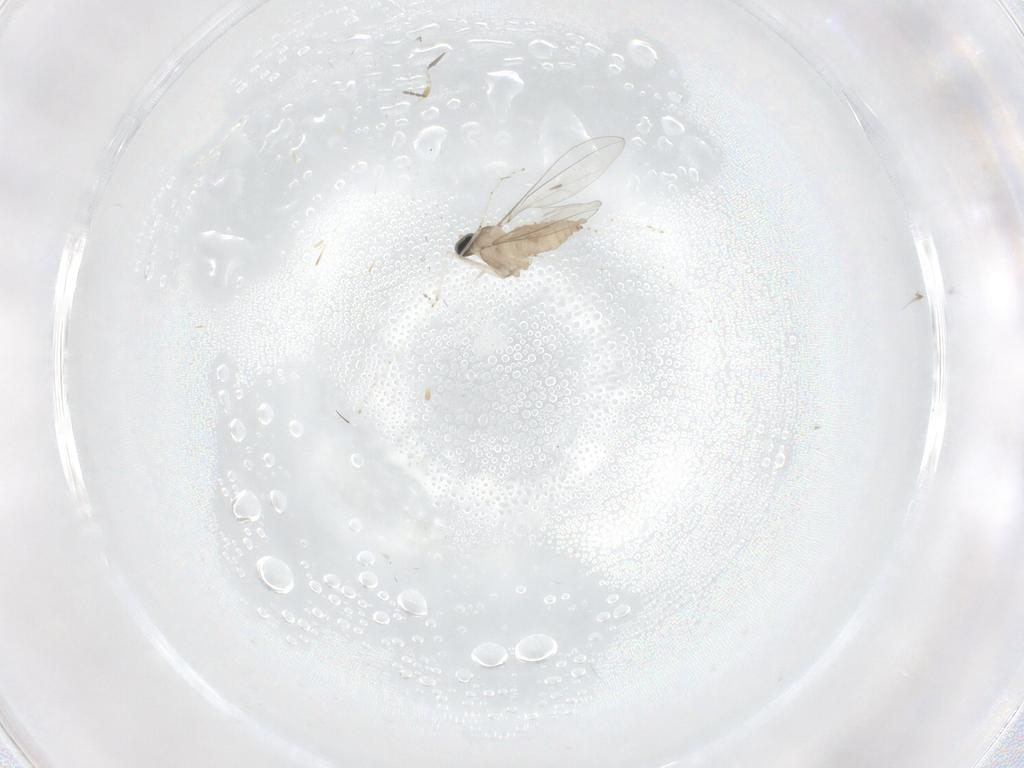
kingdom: Animalia
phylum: Arthropoda
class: Insecta
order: Diptera
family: Cecidomyiidae
